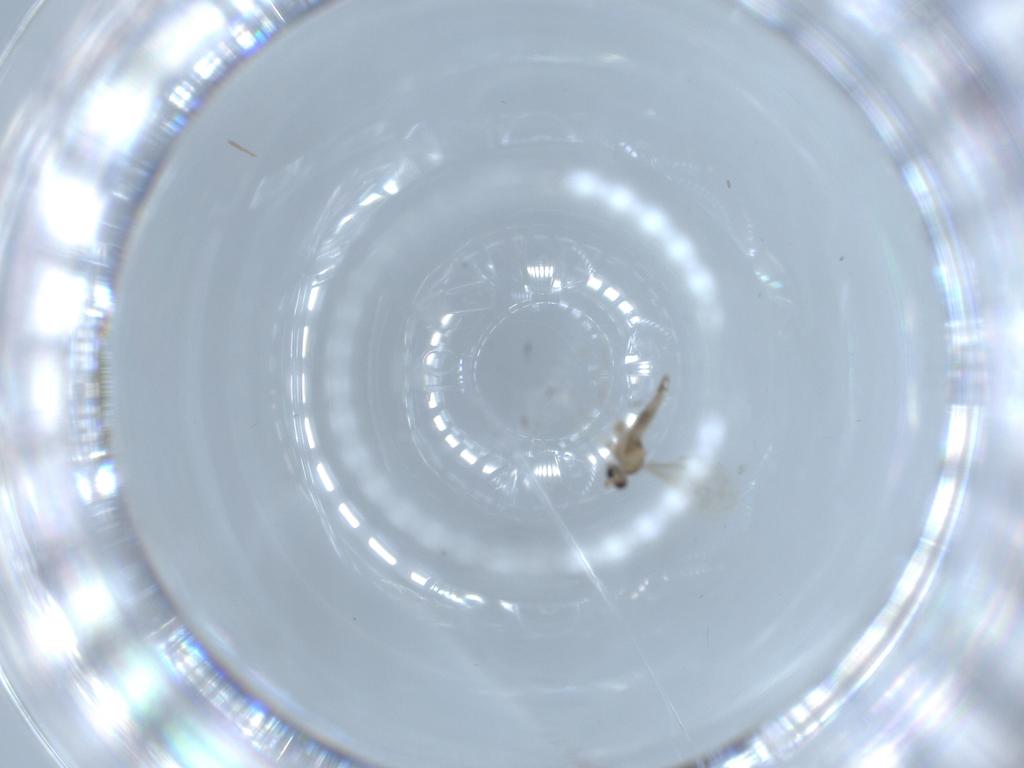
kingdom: Animalia
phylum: Arthropoda
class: Insecta
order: Diptera
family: Cecidomyiidae
